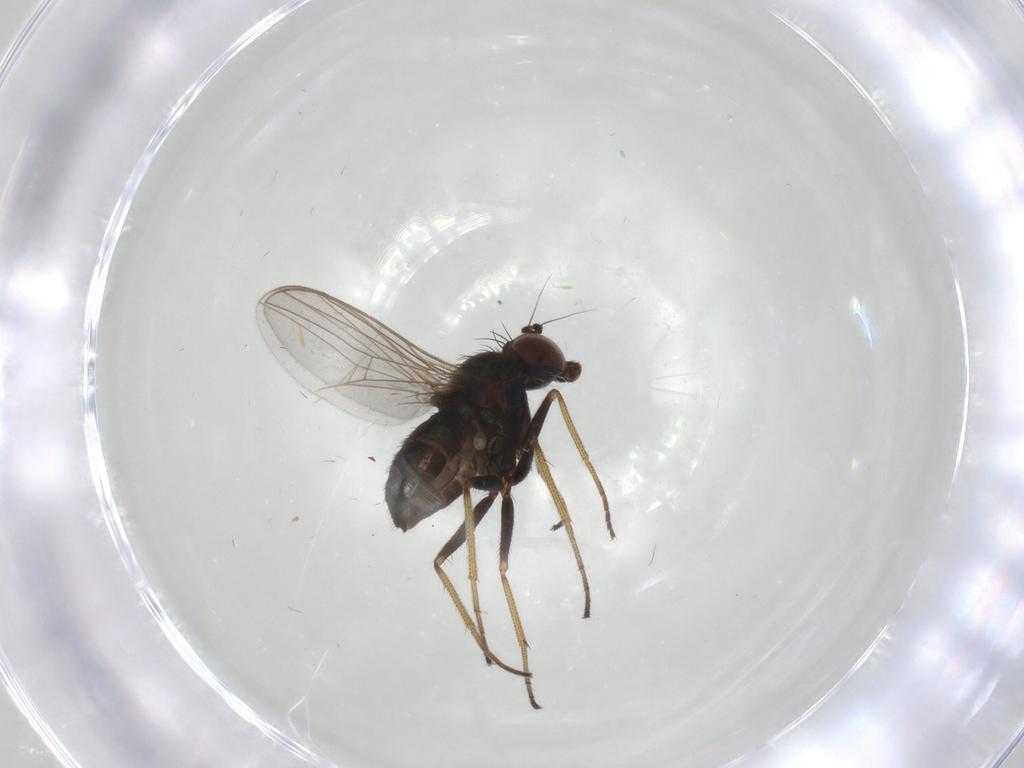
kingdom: Animalia
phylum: Arthropoda
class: Insecta
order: Diptera
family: Dolichopodidae
